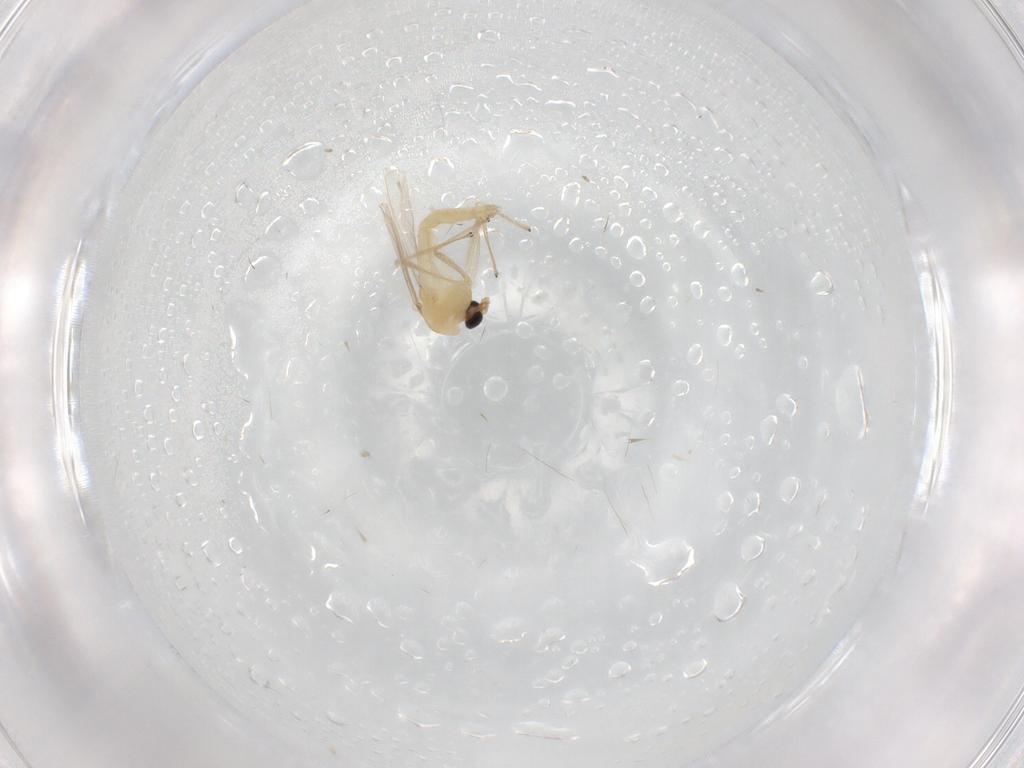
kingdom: Animalia
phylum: Arthropoda
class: Insecta
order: Diptera
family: Chironomidae
